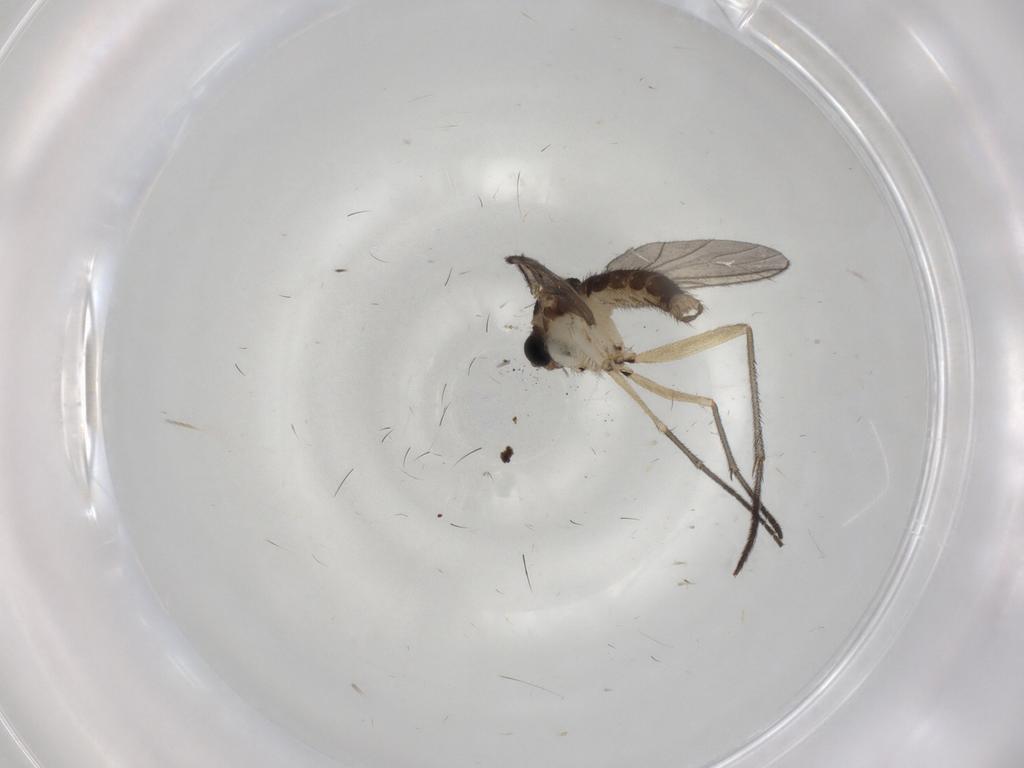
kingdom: Animalia
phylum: Arthropoda
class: Insecta
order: Diptera
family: Sciaridae
